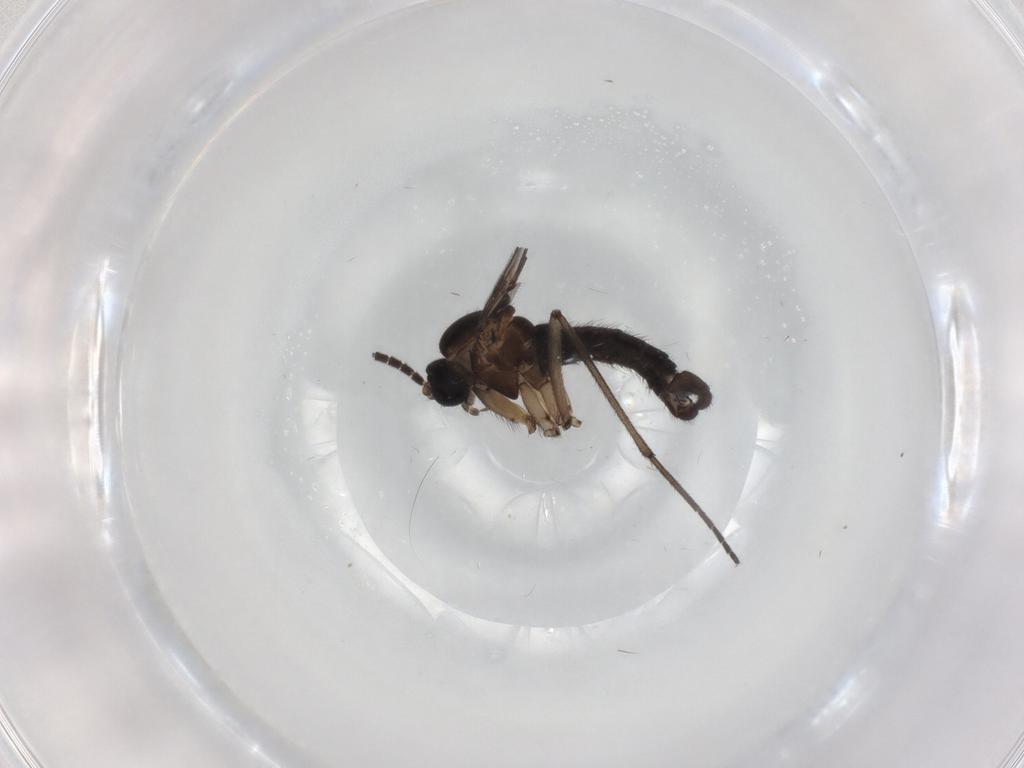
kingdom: Animalia
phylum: Arthropoda
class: Insecta
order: Diptera
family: Sciaridae
